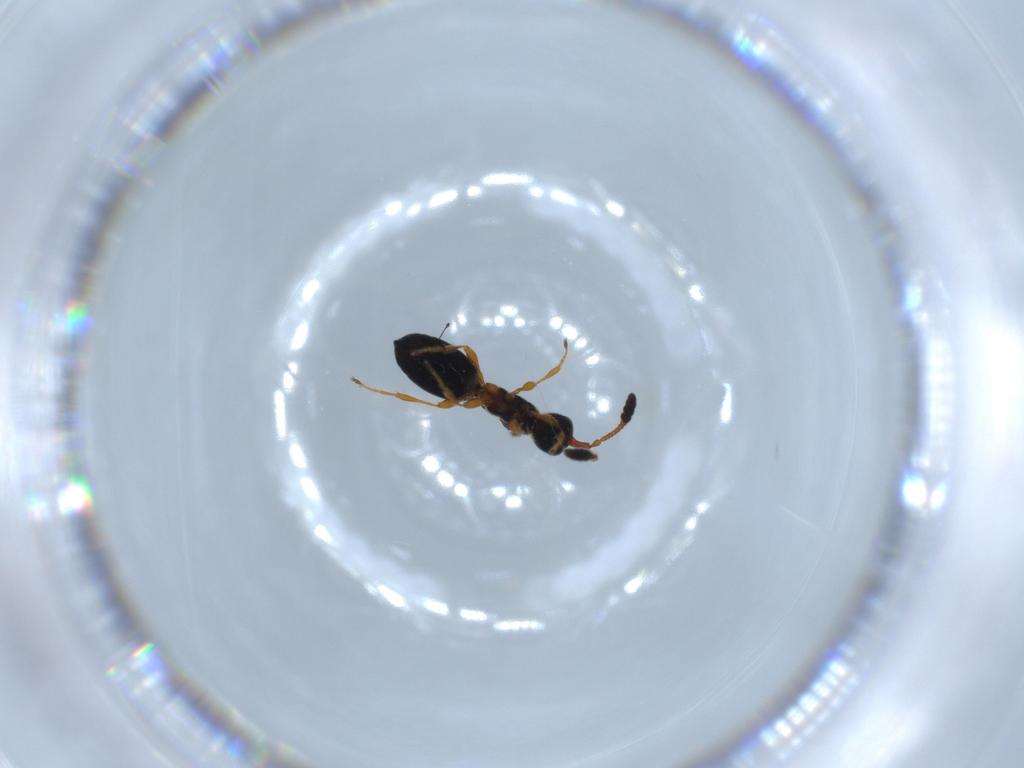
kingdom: Animalia
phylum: Arthropoda
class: Insecta
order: Hymenoptera
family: Diapriidae
